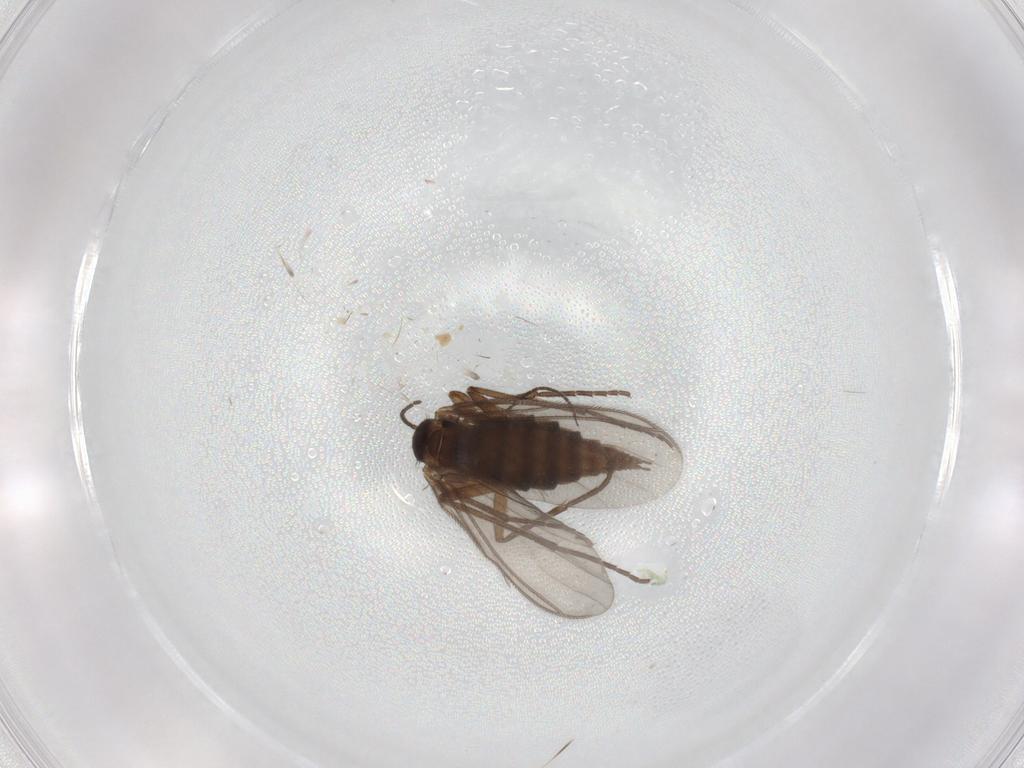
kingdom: Animalia
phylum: Arthropoda
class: Insecta
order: Diptera
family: Sciaridae
